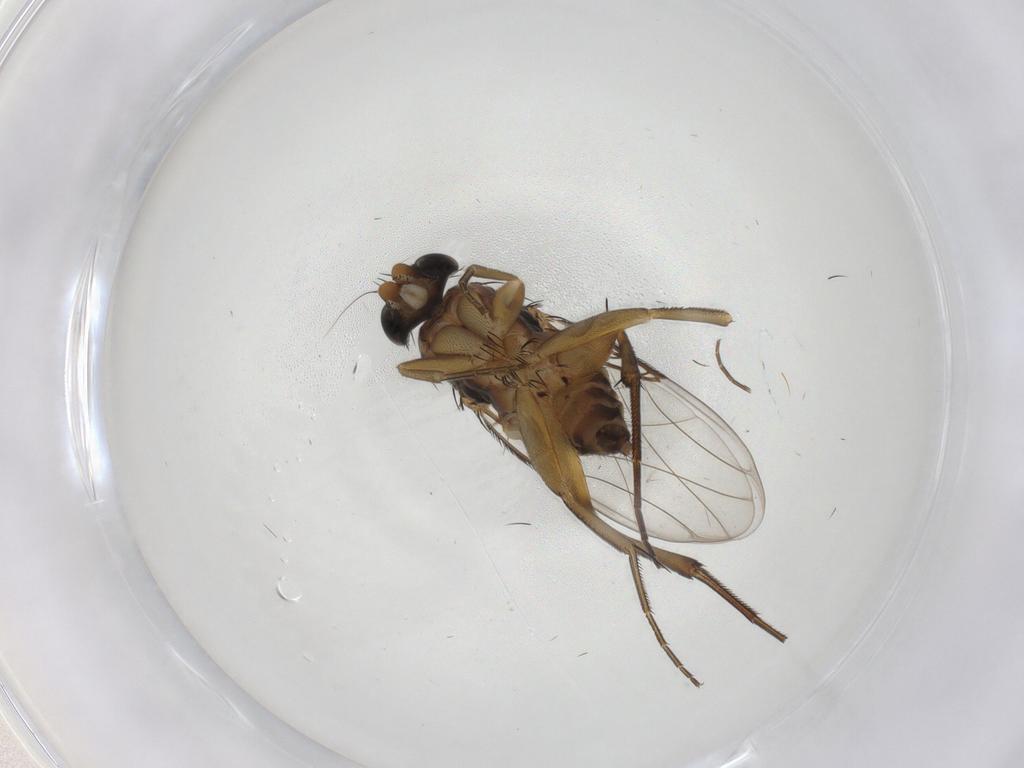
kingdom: Animalia
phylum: Arthropoda
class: Insecta
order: Diptera
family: Phoridae
